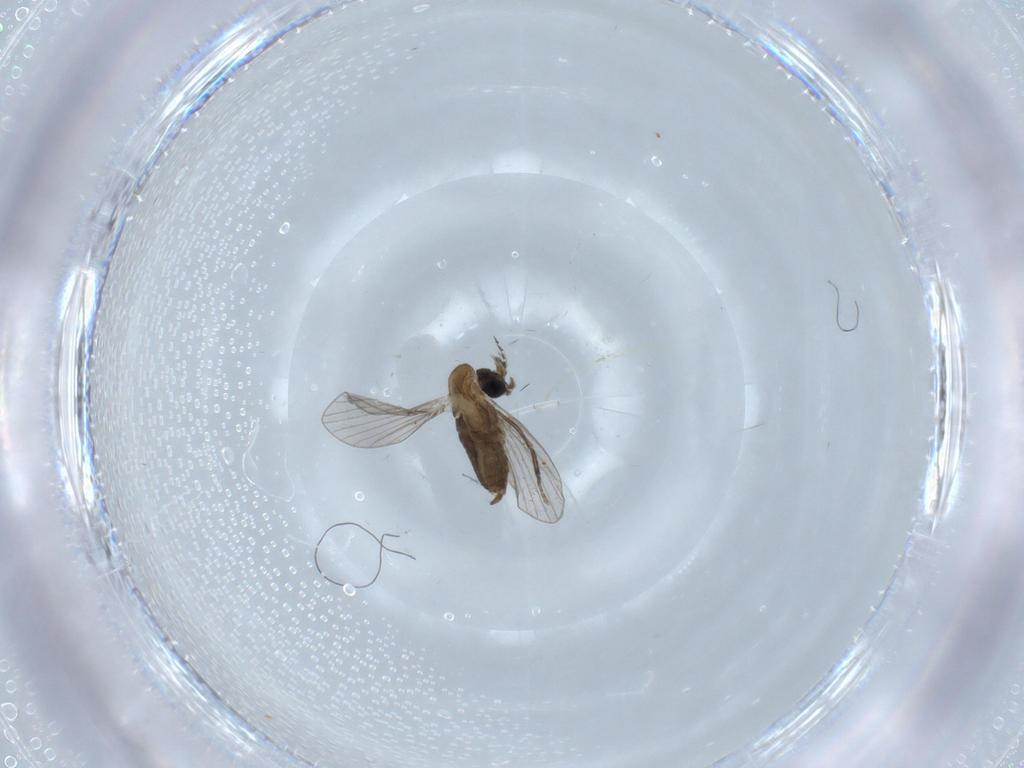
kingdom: Animalia
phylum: Arthropoda
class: Insecta
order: Diptera
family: Psychodidae
